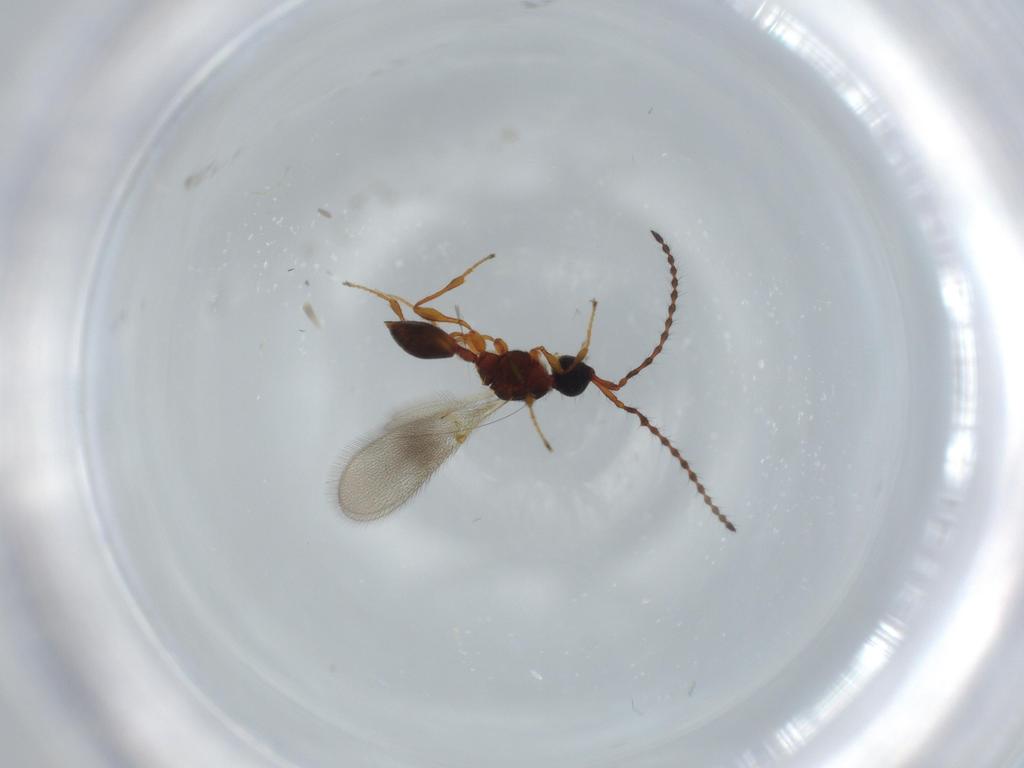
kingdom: Animalia
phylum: Arthropoda
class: Insecta
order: Hymenoptera
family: Diapriidae
